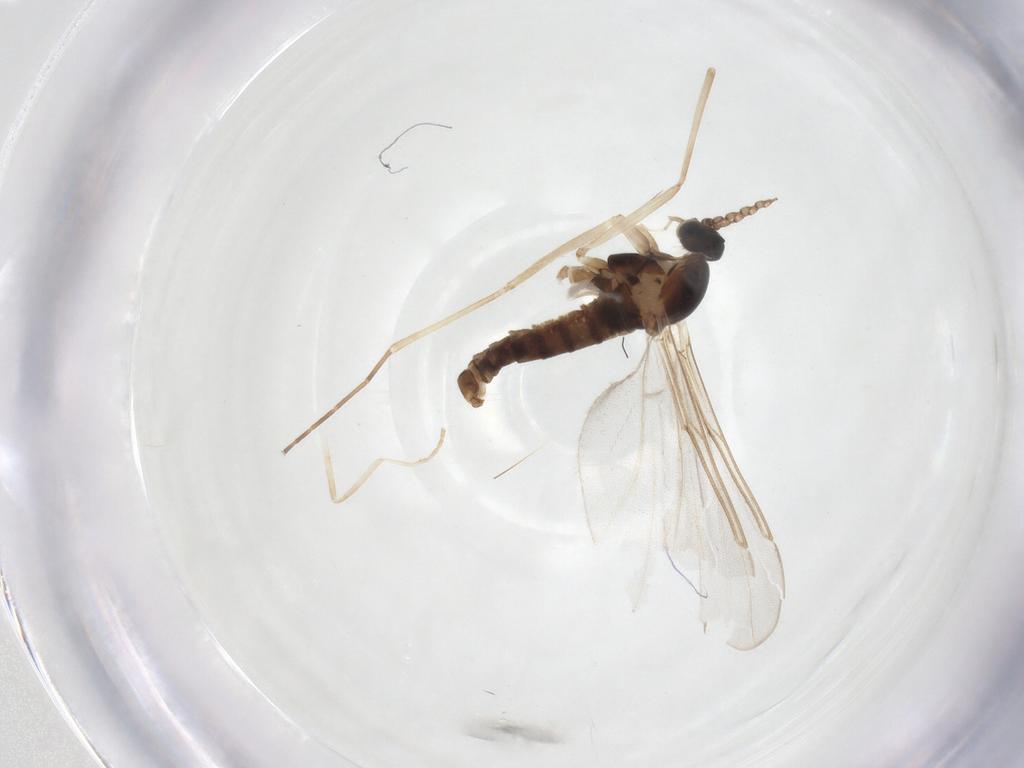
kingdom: Animalia
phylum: Arthropoda
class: Insecta
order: Diptera
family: Cecidomyiidae
